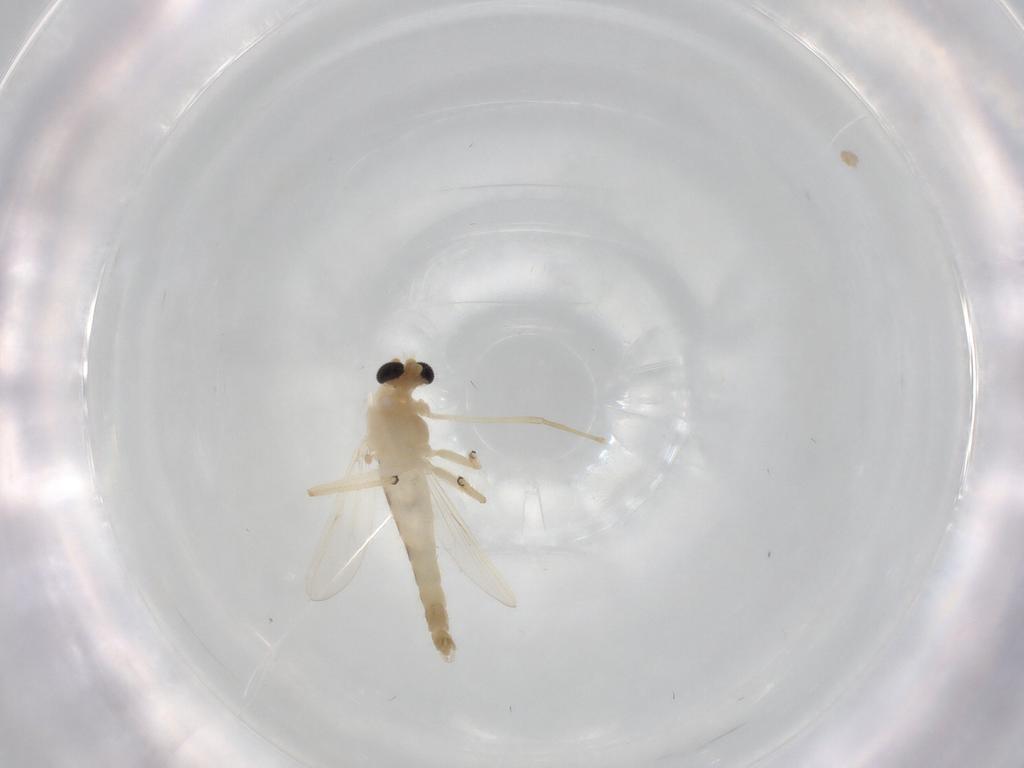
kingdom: Animalia
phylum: Arthropoda
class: Insecta
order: Diptera
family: Chironomidae
